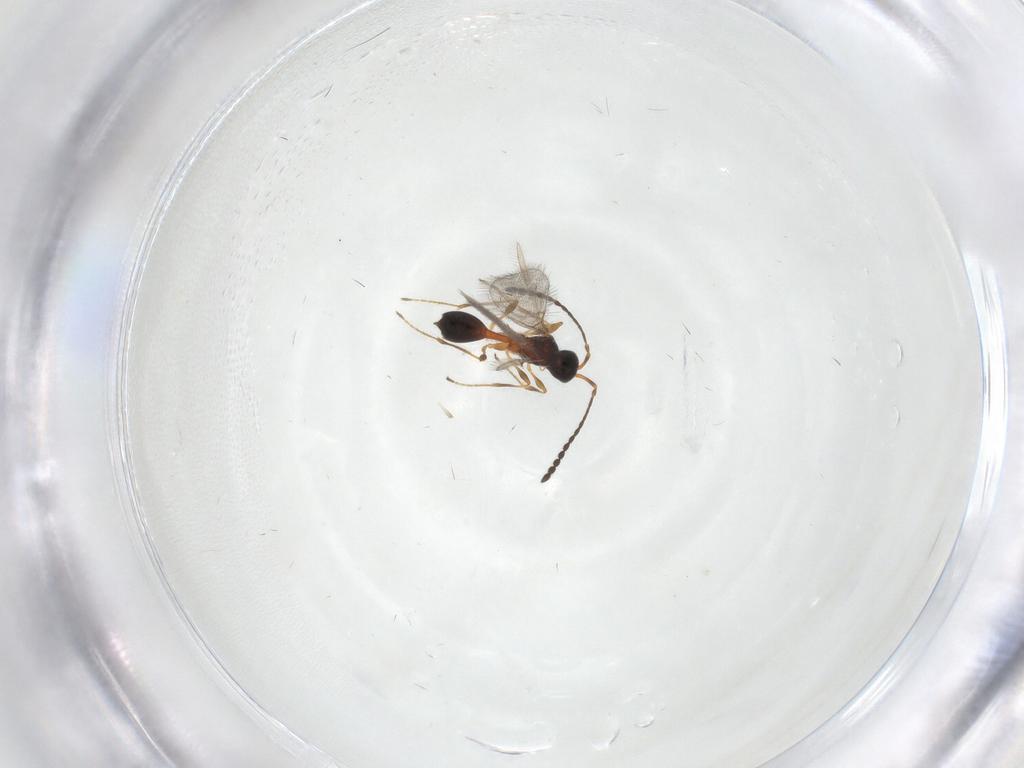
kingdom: Animalia
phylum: Arthropoda
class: Insecta
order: Hymenoptera
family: Diapriidae
